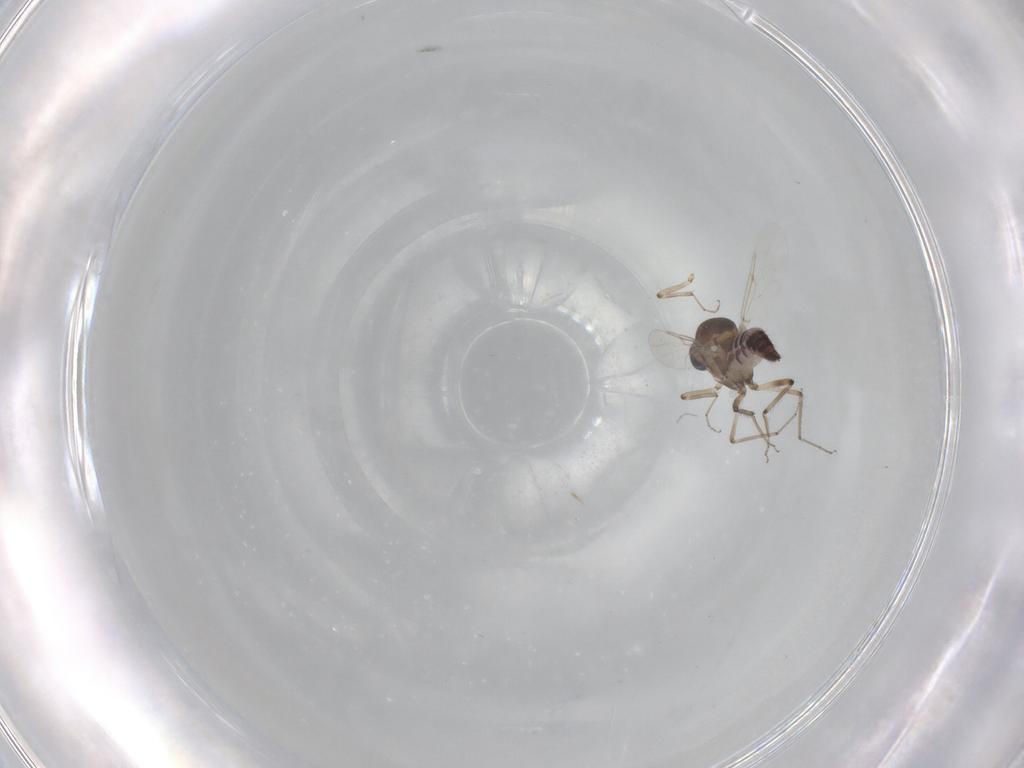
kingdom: Animalia
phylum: Arthropoda
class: Insecta
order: Diptera
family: Ceratopogonidae
